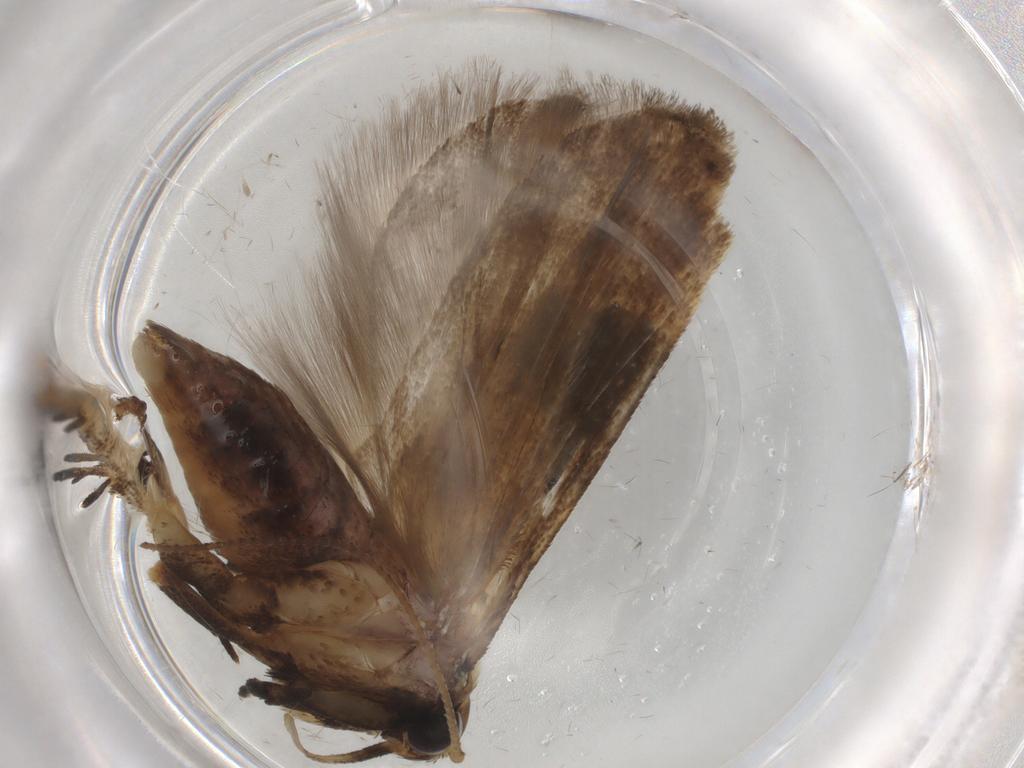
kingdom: Animalia
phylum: Arthropoda
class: Insecta
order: Lepidoptera
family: Gelechiidae
